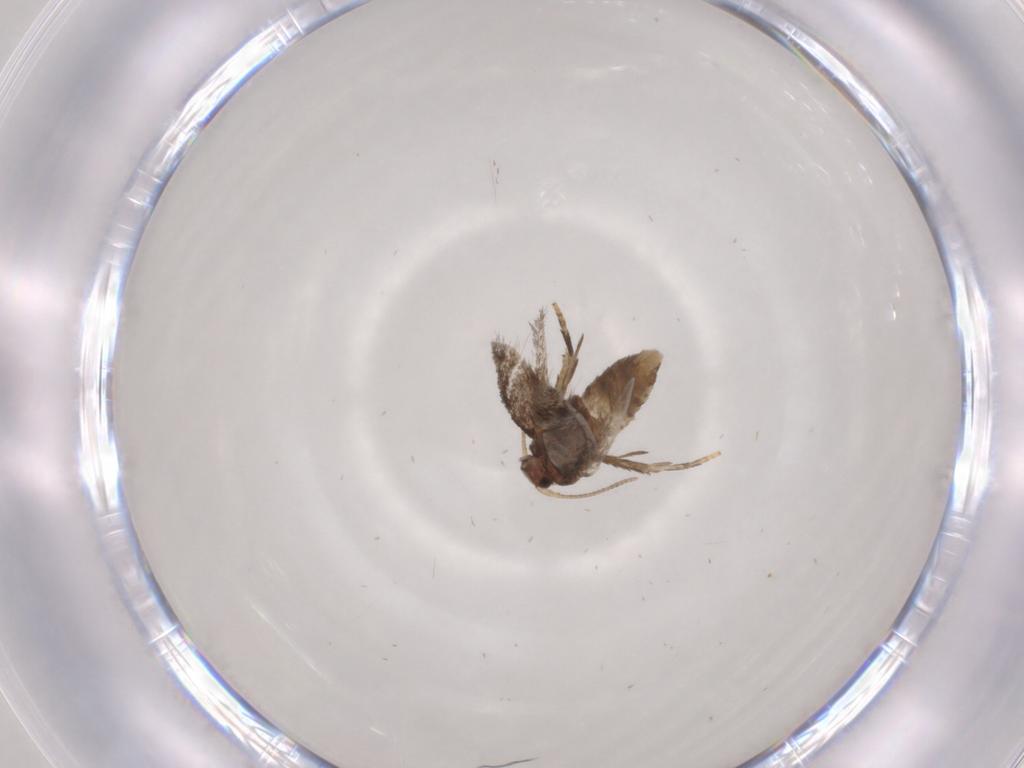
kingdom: Animalia
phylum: Arthropoda
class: Insecta
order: Lepidoptera
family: Nepticulidae
